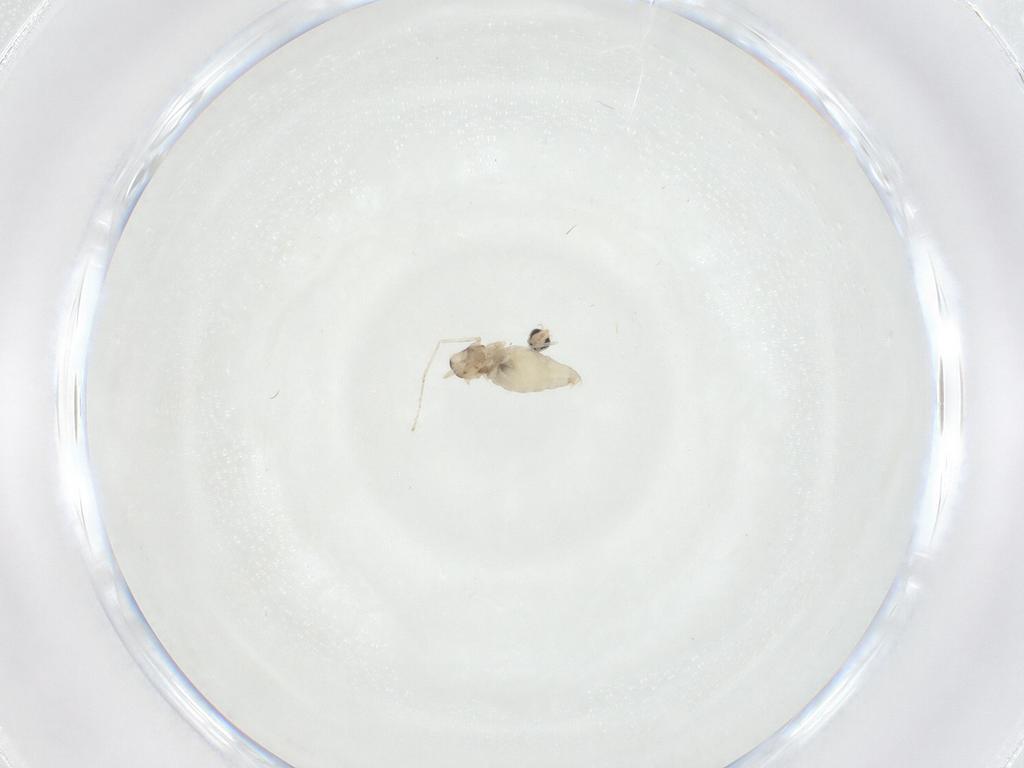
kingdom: Animalia
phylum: Arthropoda
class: Insecta
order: Diptera
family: Cecidomyiidae
